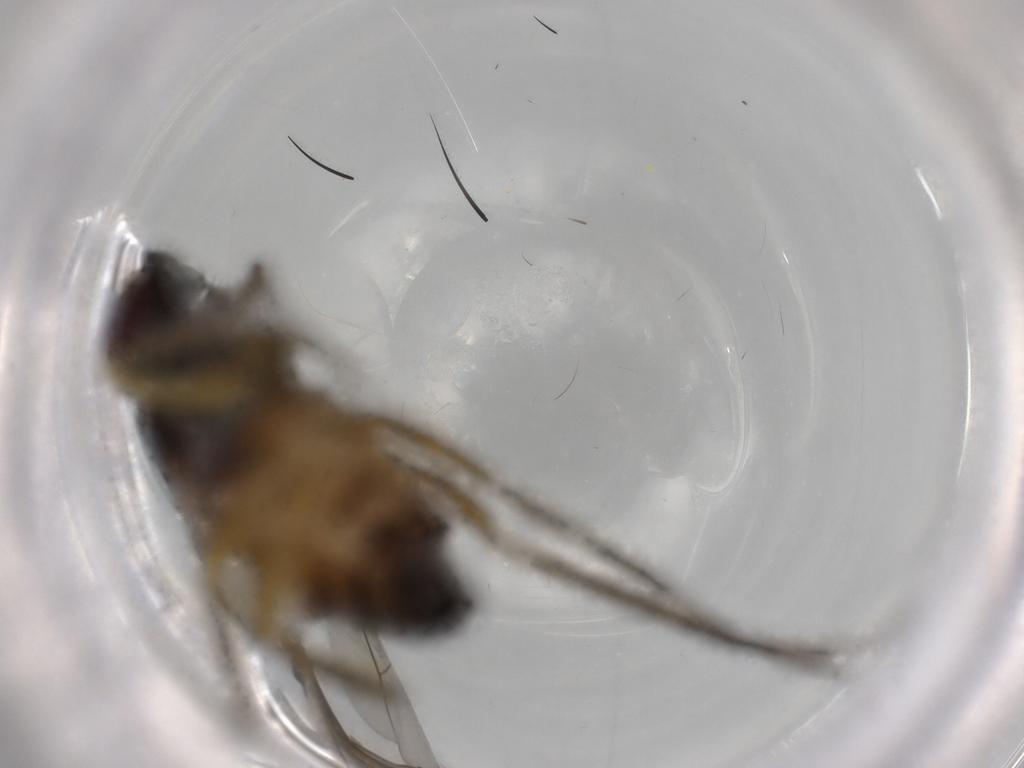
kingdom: Animalia
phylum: Arthropoda
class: Insecta
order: Diptera
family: Dolichopodidae
